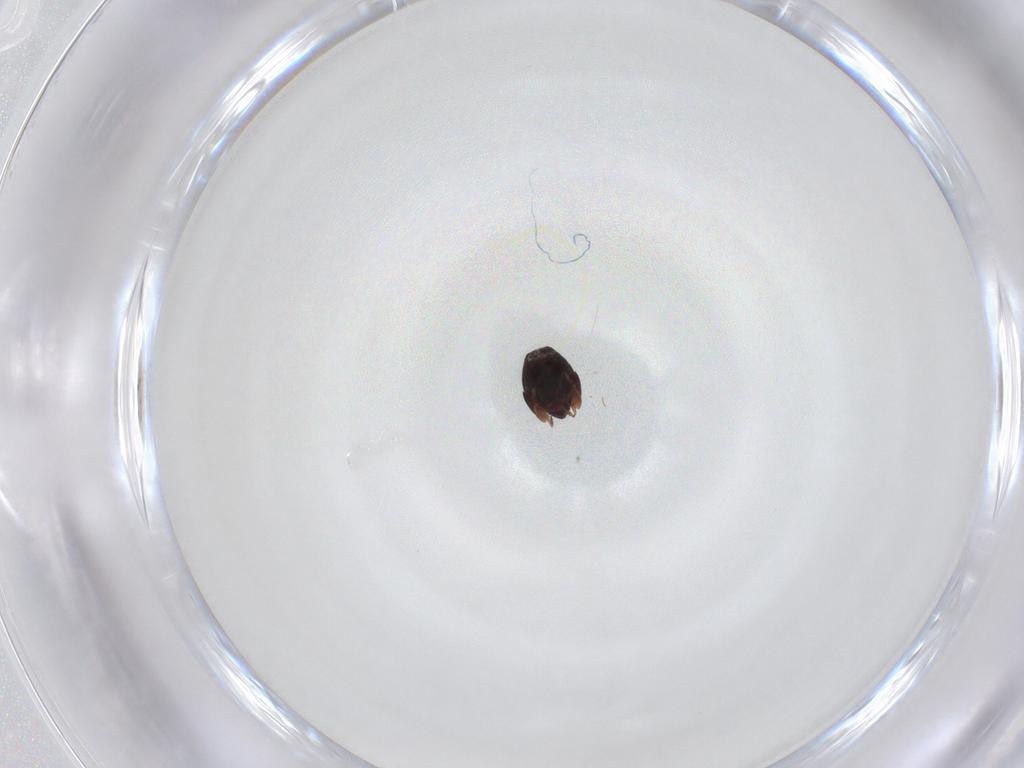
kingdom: Animalia
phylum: Arthropoda
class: Arachnida
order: Sarcoptiformes
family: Galumnidae
